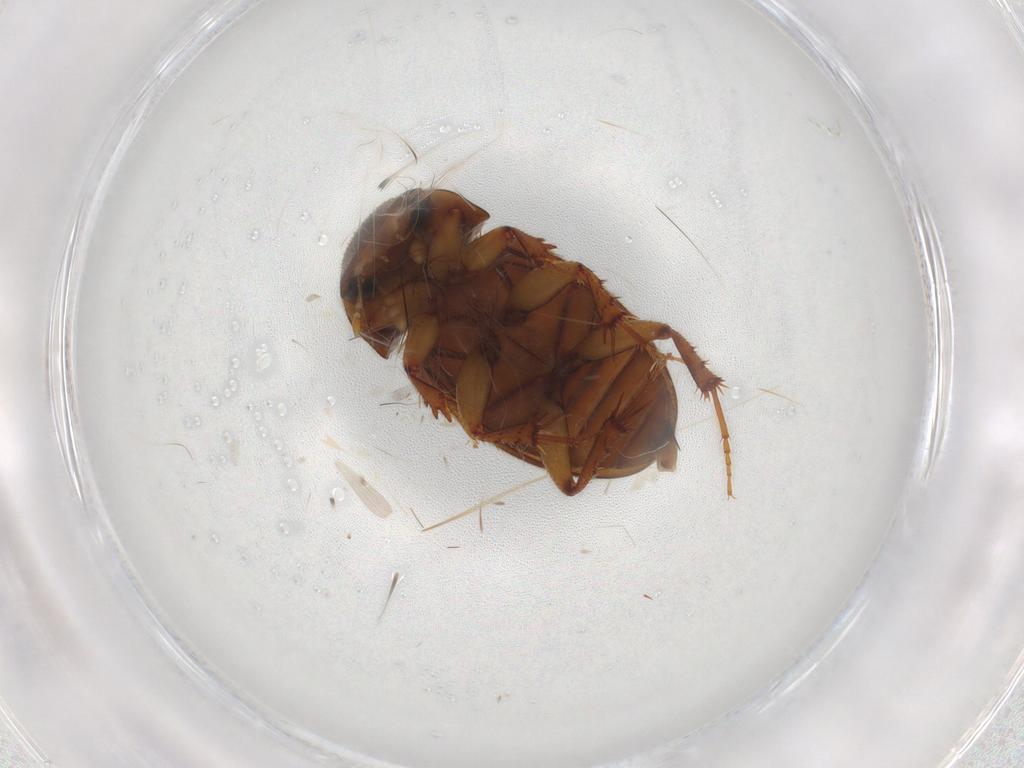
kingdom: Animalia
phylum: Arthropoda
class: Insecta
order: Coleoptera
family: Scarabaeidae
